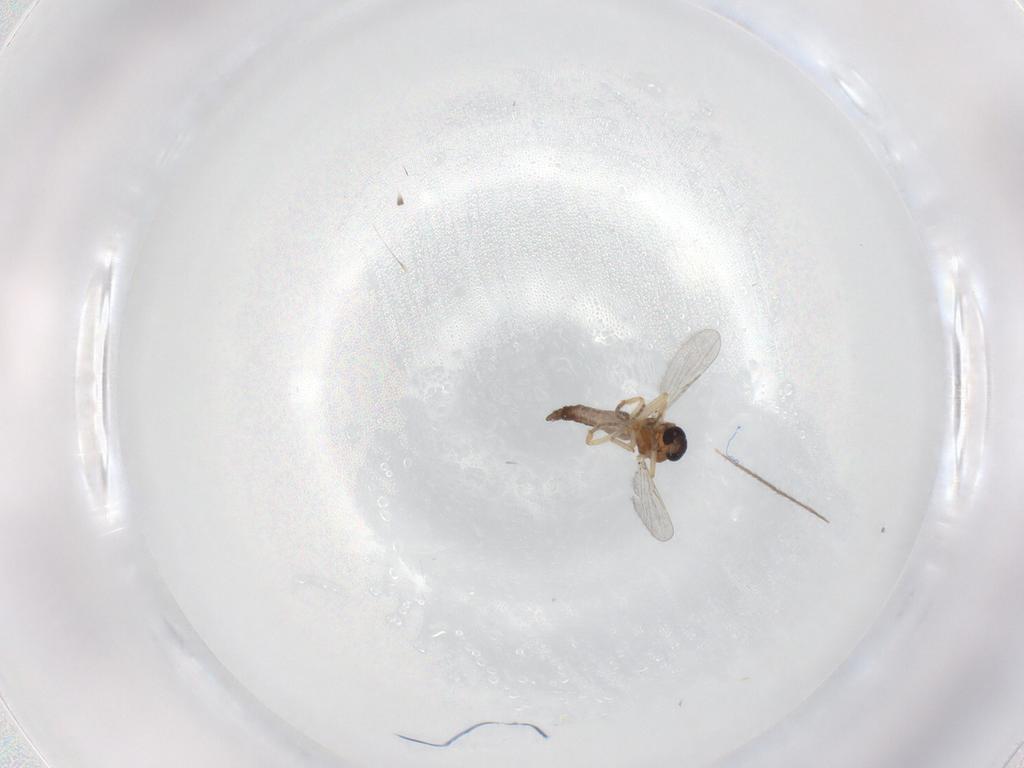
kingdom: Animalia
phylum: Arthropoda
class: Insecta
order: Diptera
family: Ceratopogonidae
